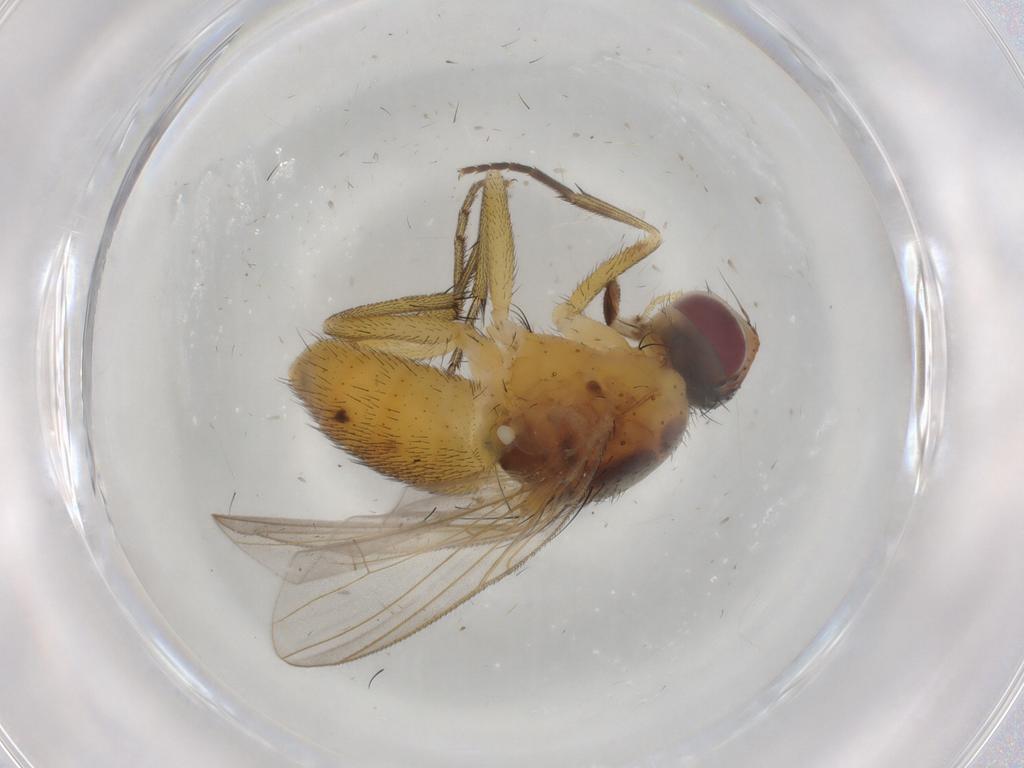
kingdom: Animalia
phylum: Arthropoda
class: Insecta
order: Diptera
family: Muscidae
